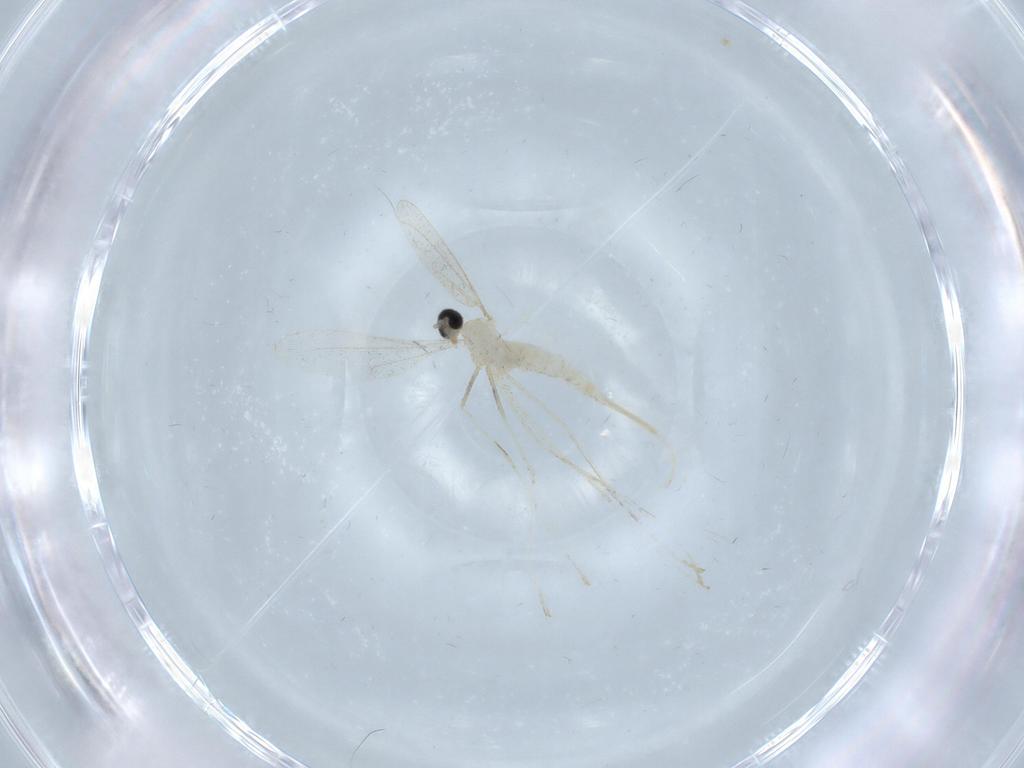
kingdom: Animalia
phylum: Arthropoda
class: Insecta
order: Diptera
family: Cecidomyiidae
